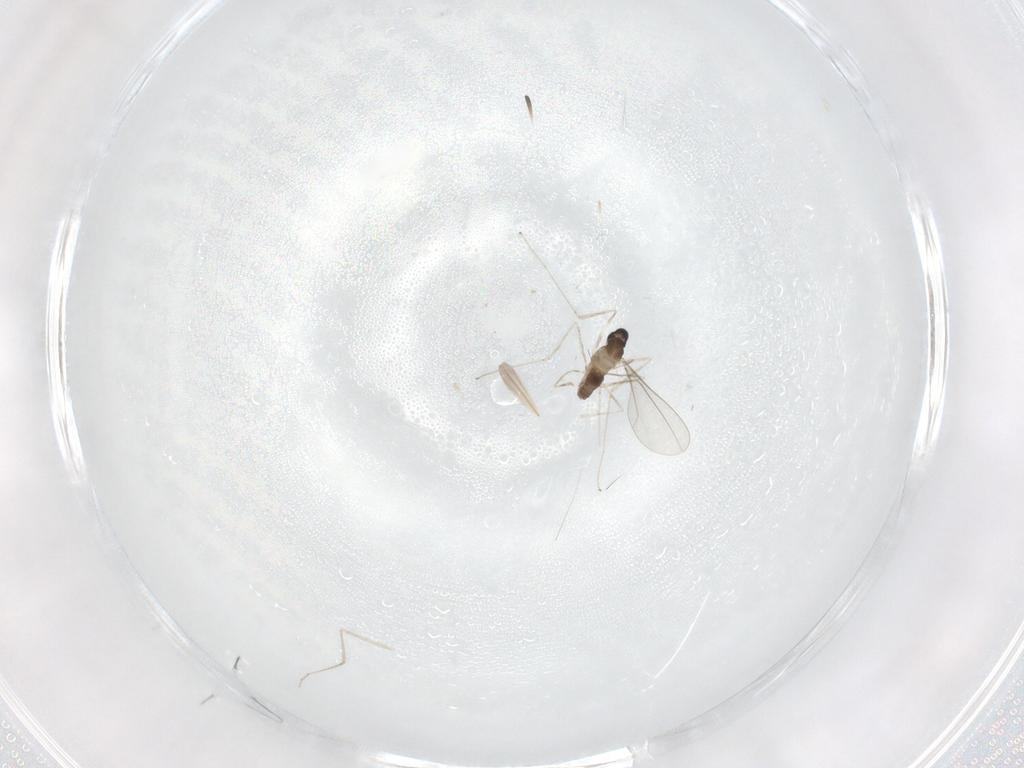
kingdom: Animalia
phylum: Arthropoda
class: Insecta
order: Diptera
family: Cecidomyiidae
